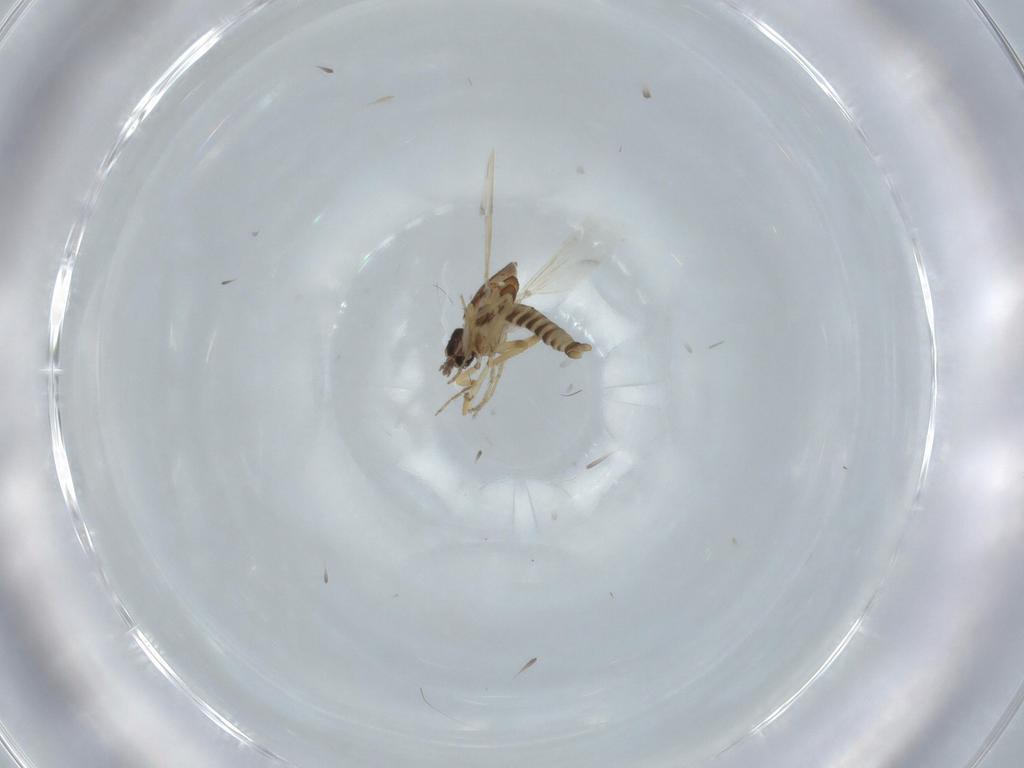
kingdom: Animalia
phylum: Arthropoda
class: Insecta
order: Diptera
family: Ceratopogonidae
